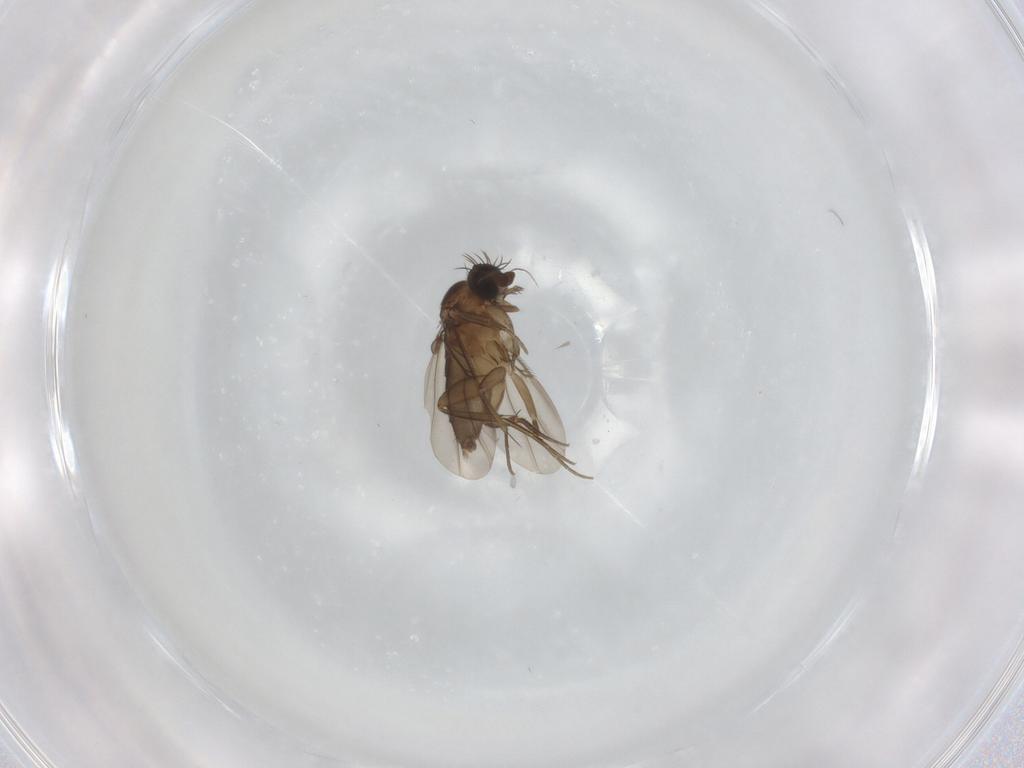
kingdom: Animalia
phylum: Arthropoda
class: Insecta
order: Diptera
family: Phoridae
